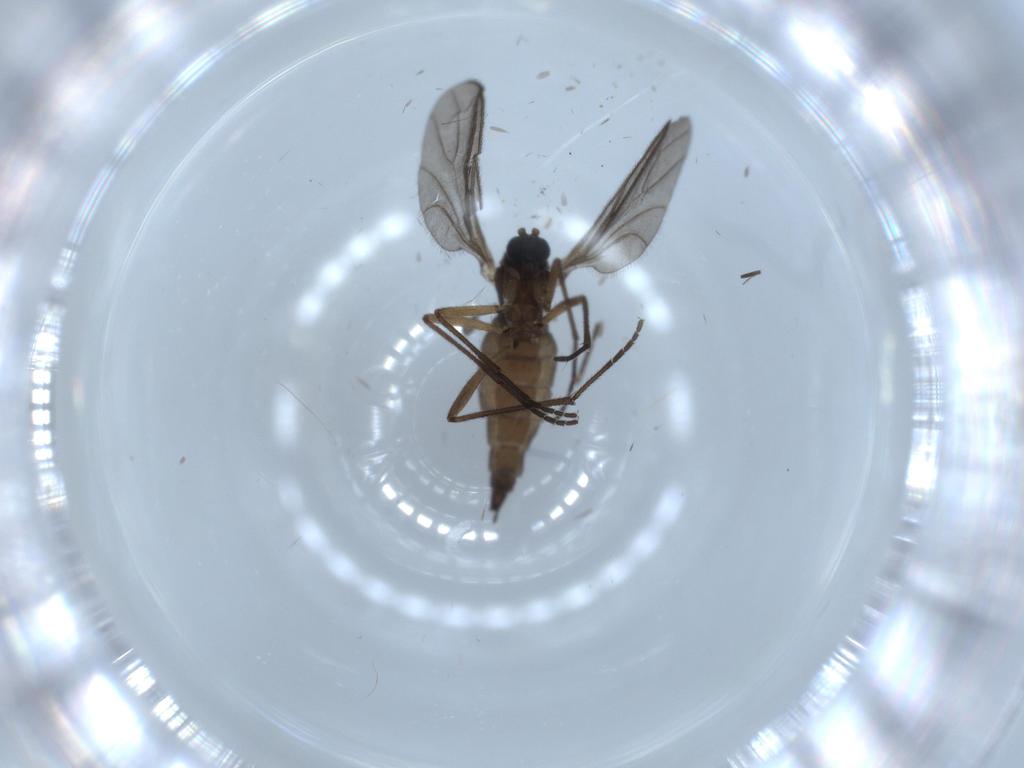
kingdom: Animalia
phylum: Arthropoda
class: Insecta
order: Diptera
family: Sciaridae
